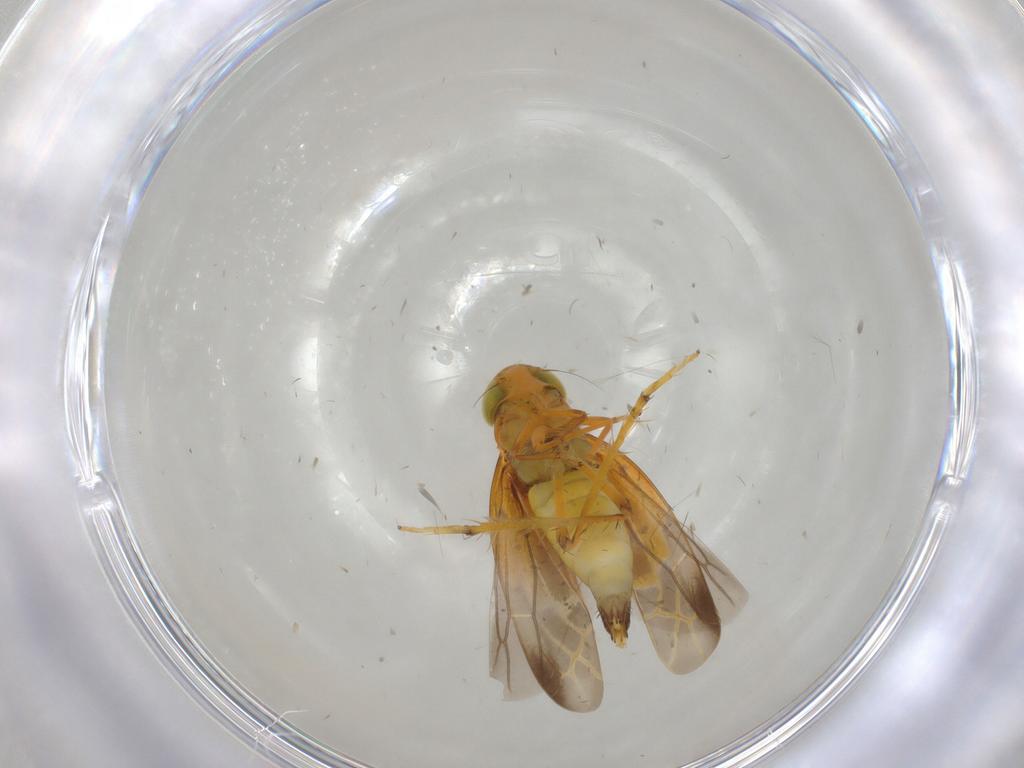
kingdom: Animalia
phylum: Arthropoda
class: Insecta
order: Hemiptera
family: Cicadellidae
